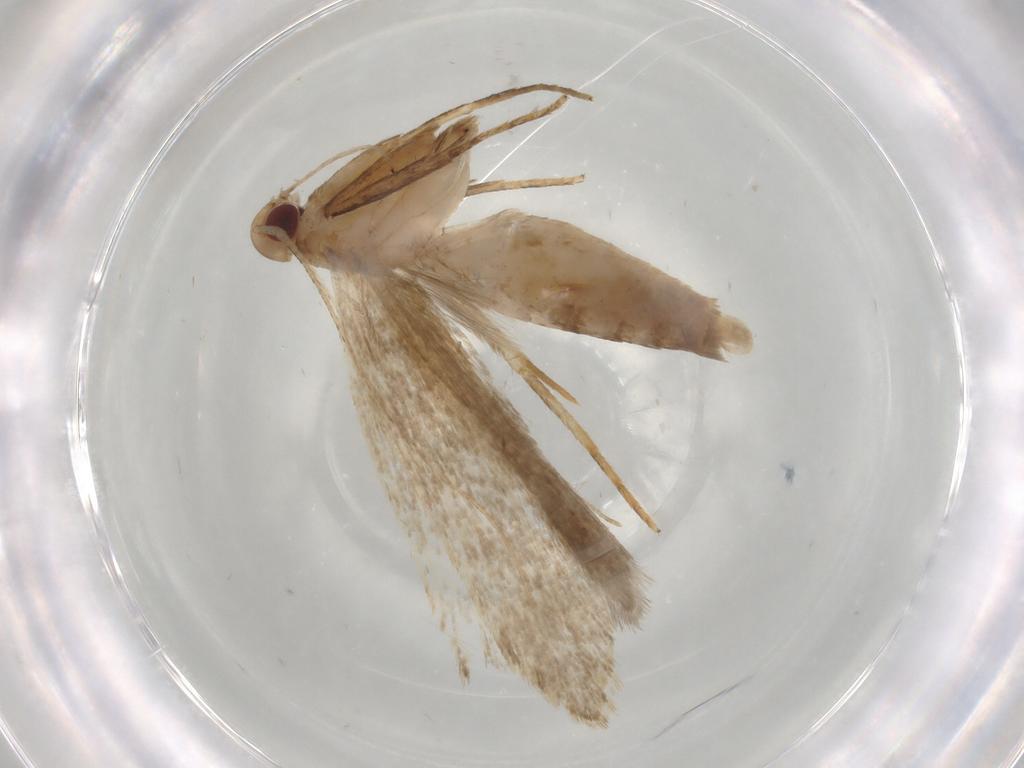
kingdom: Animalia
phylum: Arthropoda
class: Insecta
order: Lepidoptera
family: Gelechiidae
